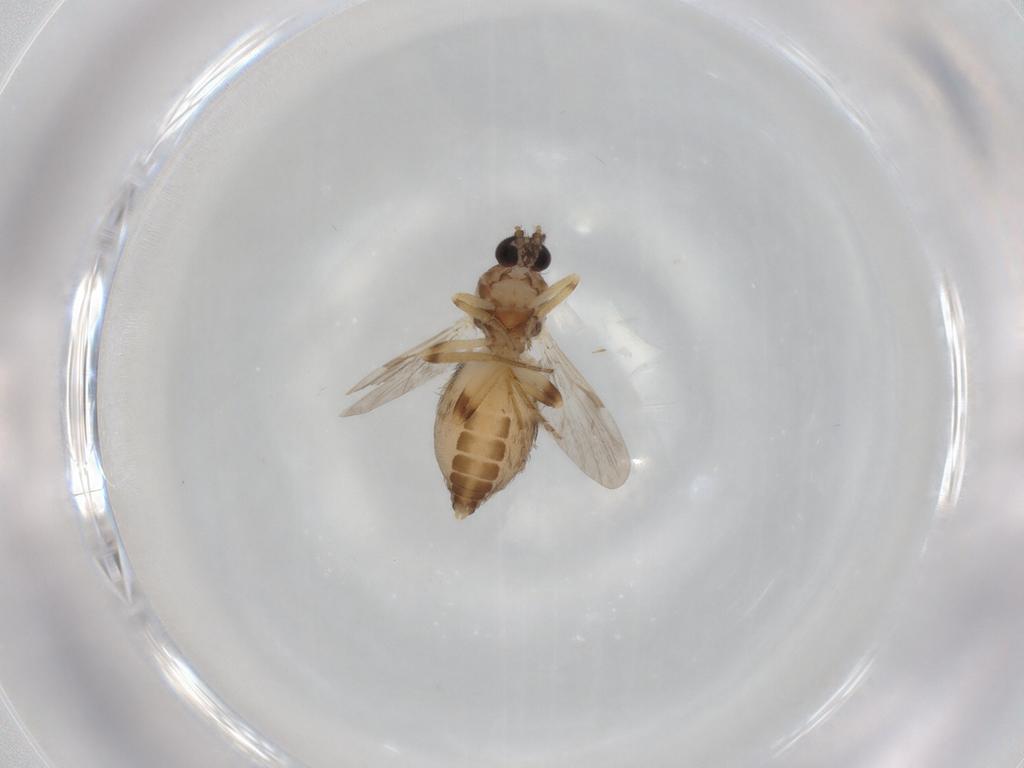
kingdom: Animalia
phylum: Arthropoda
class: Insecta
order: Diptera
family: Ceratopogonidae
